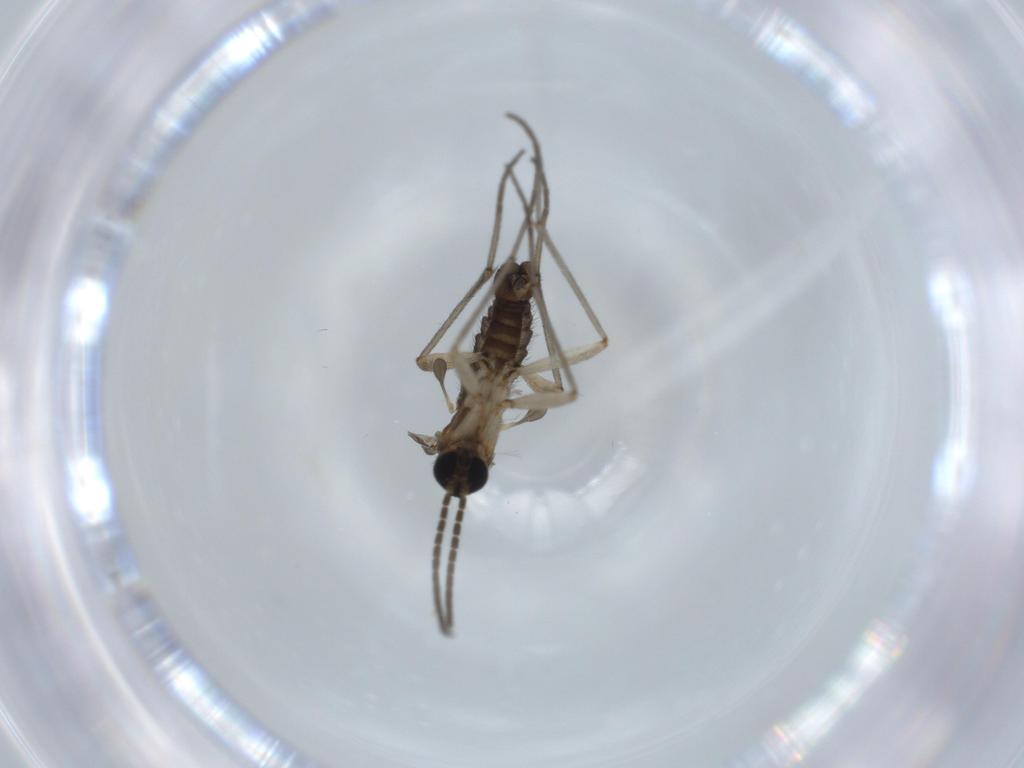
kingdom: Animalia
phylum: Arthropoda
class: Insecta
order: Diptera
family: Sciaridae
